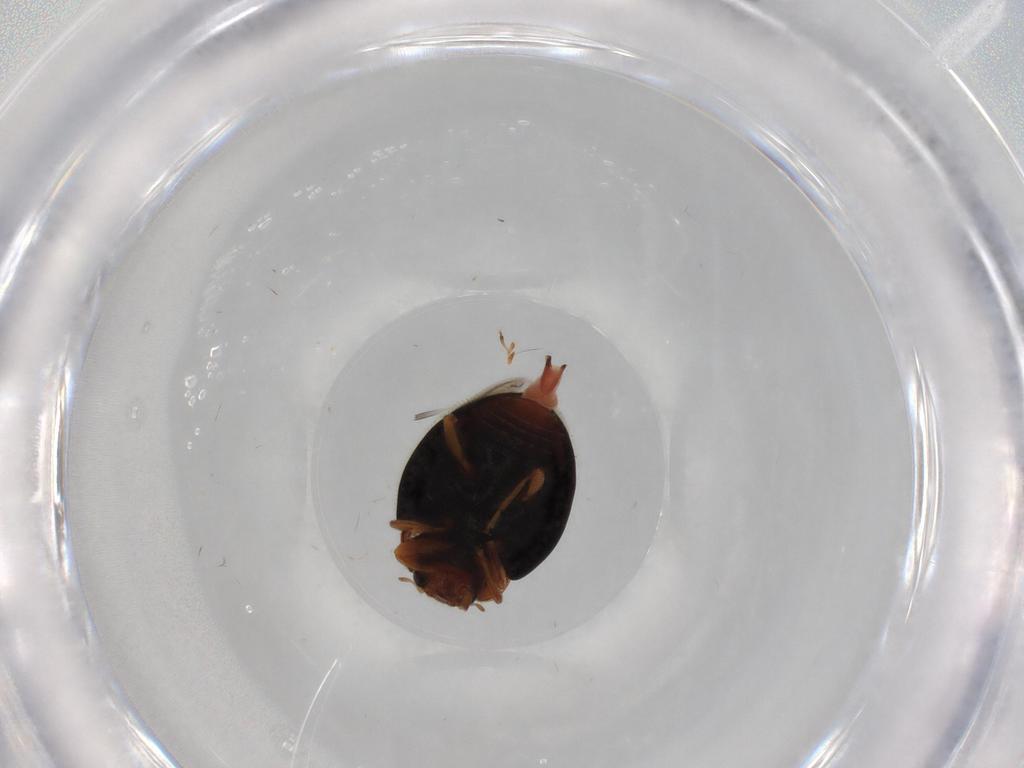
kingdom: Animalia
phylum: Arthropoda
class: Insecta
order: Coleoptera
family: Coccinellidae
